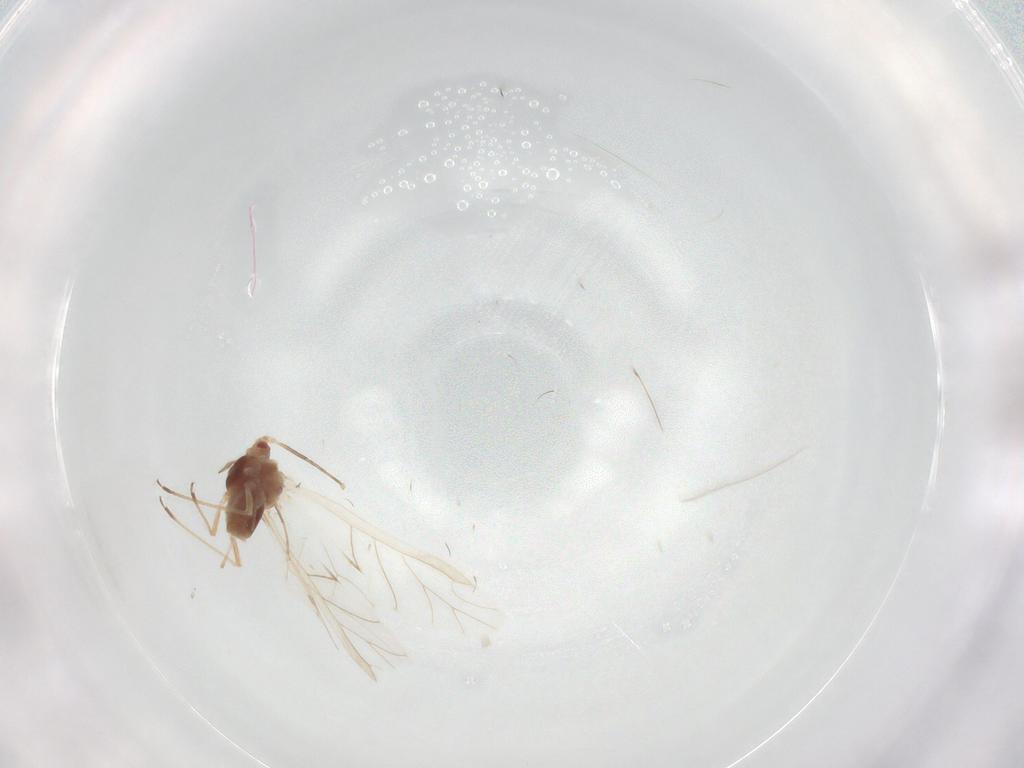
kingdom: Animalia
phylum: Arthropoda
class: Insecta
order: Hemiptera
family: Aphididae
